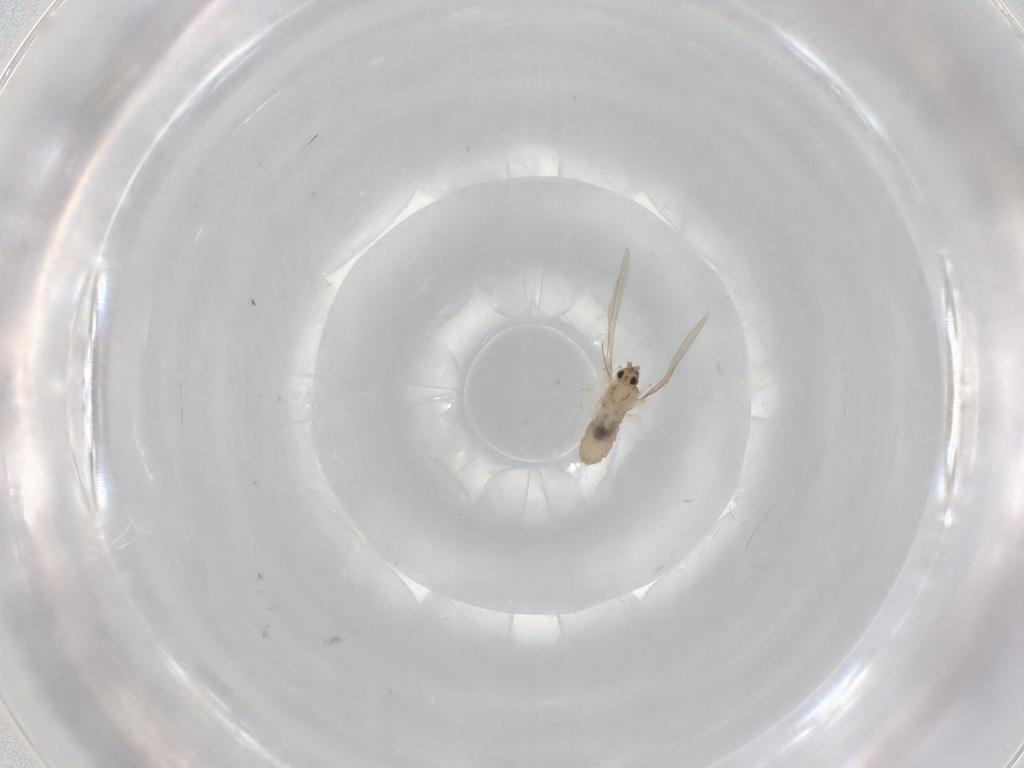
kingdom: Animalia
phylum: Arthropoda
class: Insecta
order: Diptera
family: Cecidomyiidae
